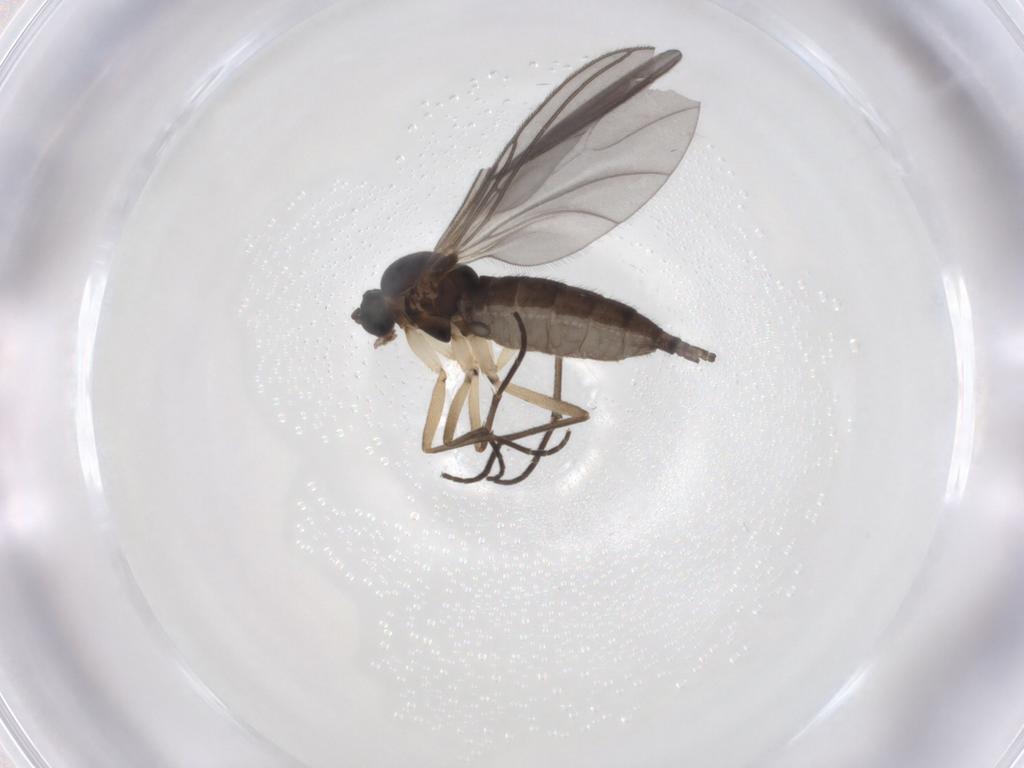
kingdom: Animalia
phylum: Arthropoda
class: Insecta
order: Diptera
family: Sciaridae
